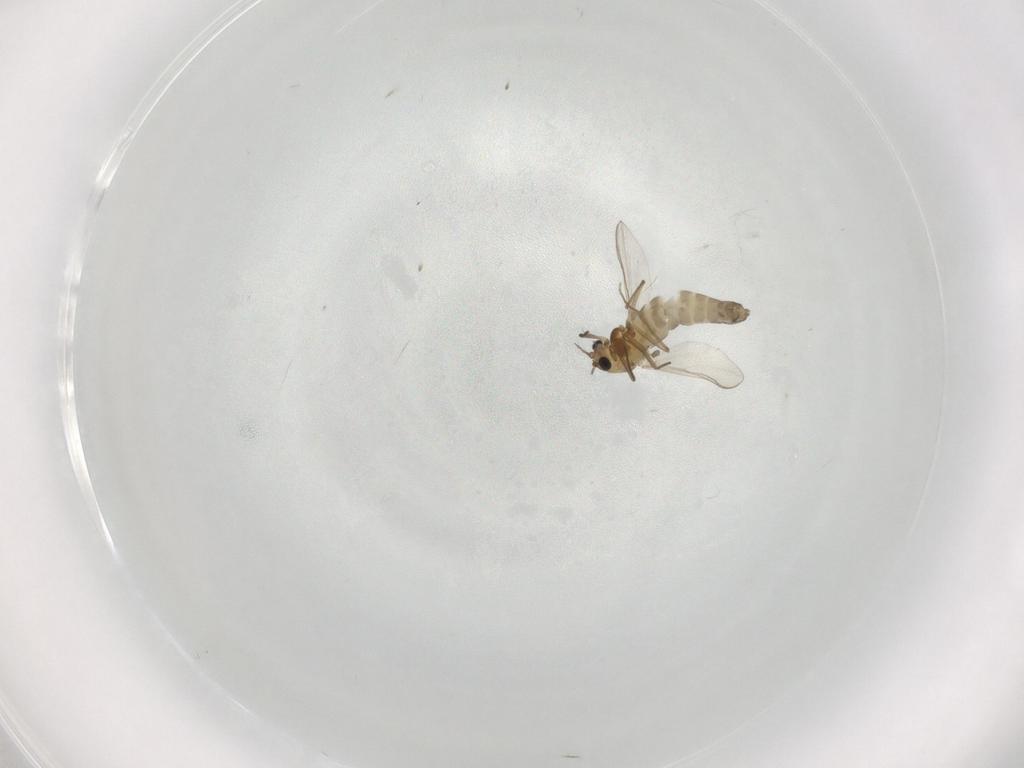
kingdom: Animalia
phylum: Arthropoda
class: Insecta
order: Diptera
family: Chironomidae
